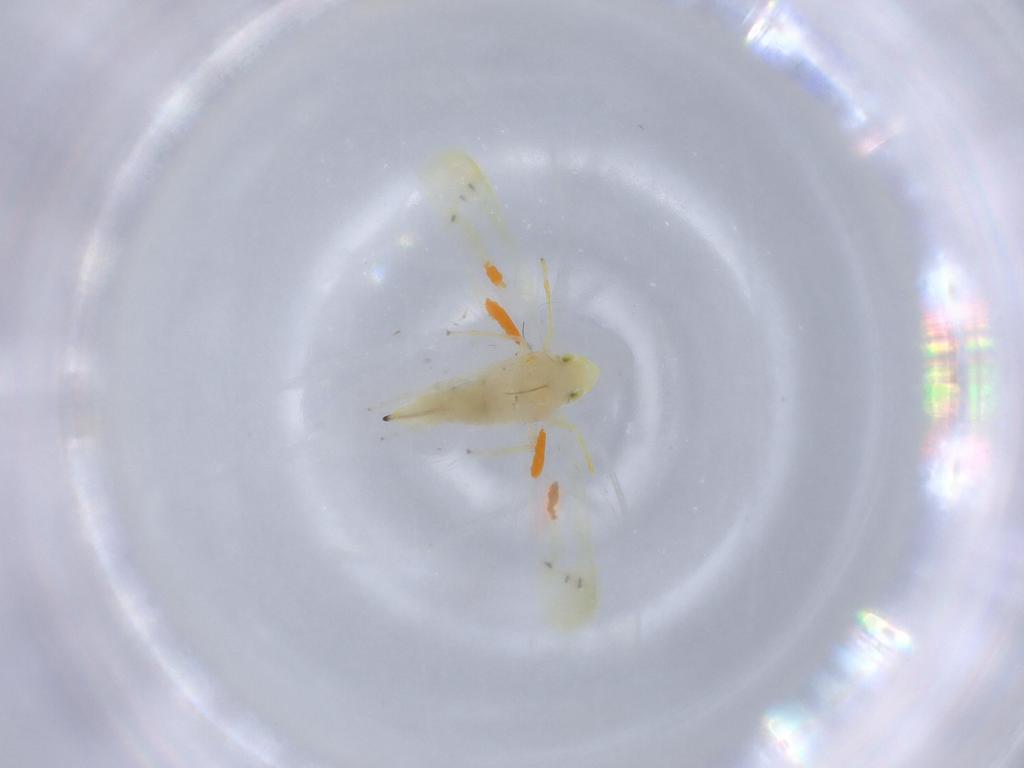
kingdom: Animalia
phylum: Arthropoda
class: Insecta
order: Hemiptera
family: Cicadellidae
